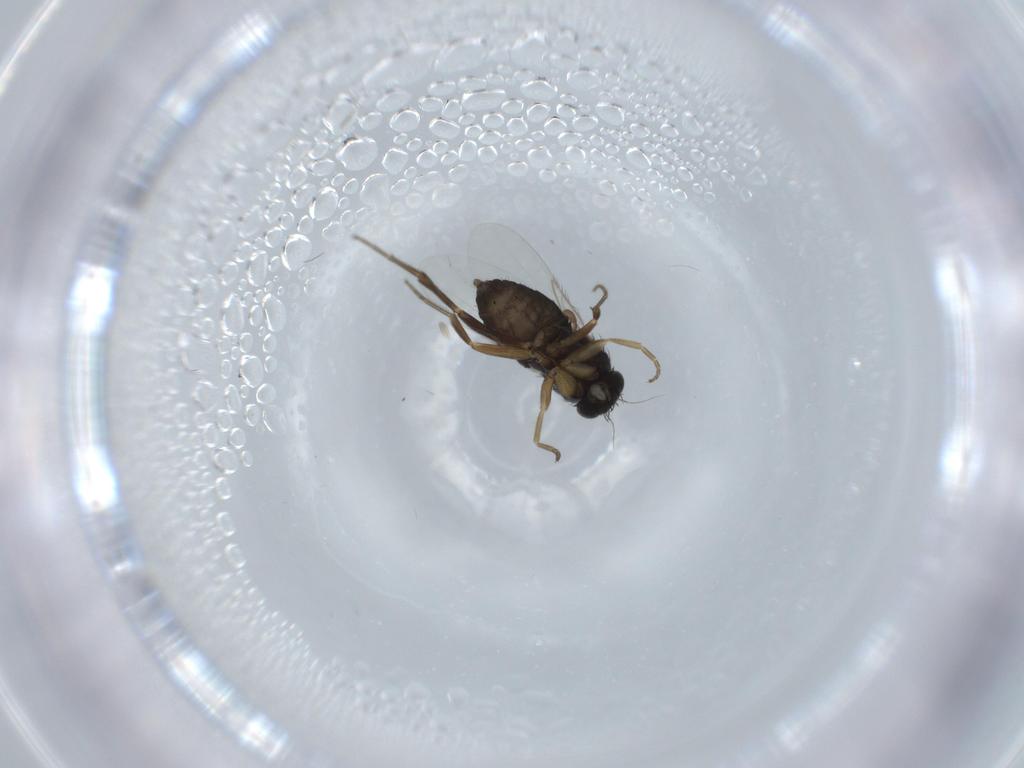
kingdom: Animalia
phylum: Arthropoda
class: Insecta
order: Diptera
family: Phoridae
